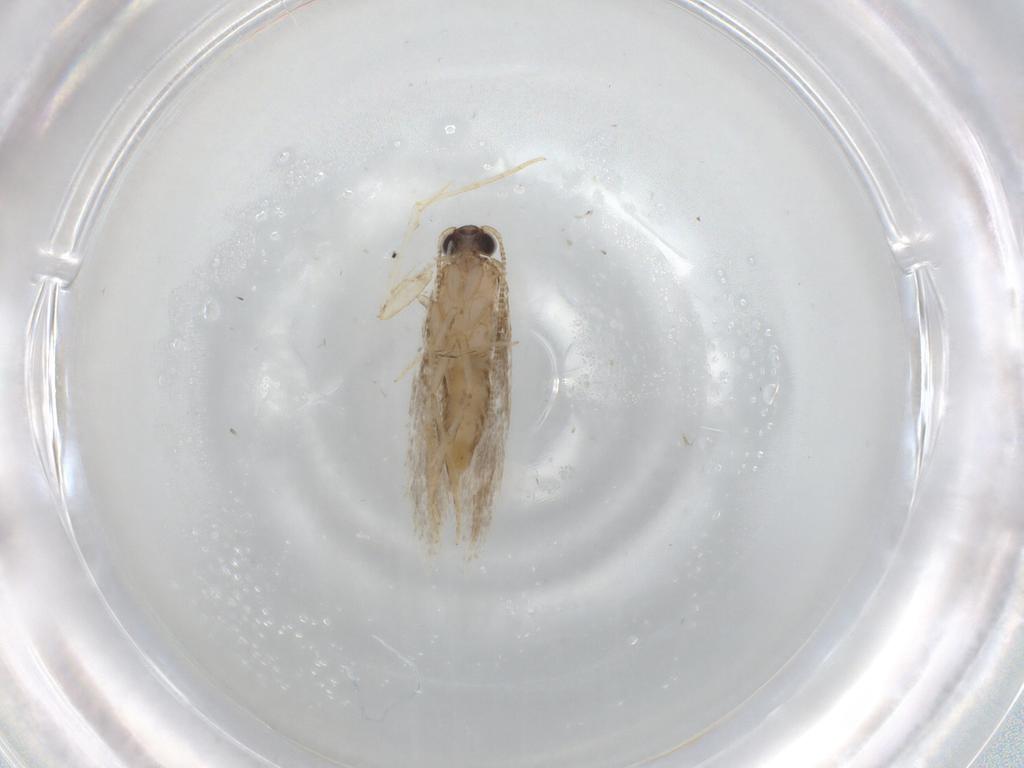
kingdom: Animalia
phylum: Arthropoda
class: Insecta
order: Lepidoptera
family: Tineidae
